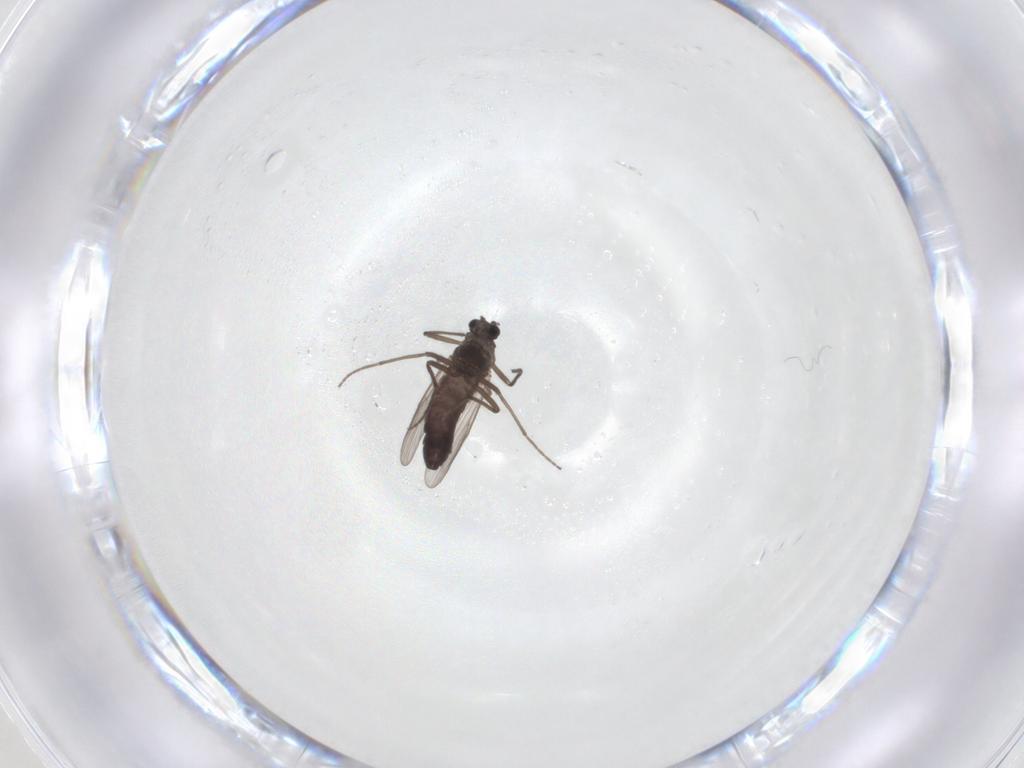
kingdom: Animalia
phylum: Arthropoda
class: Insecta
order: Diptera
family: Chironomidae
